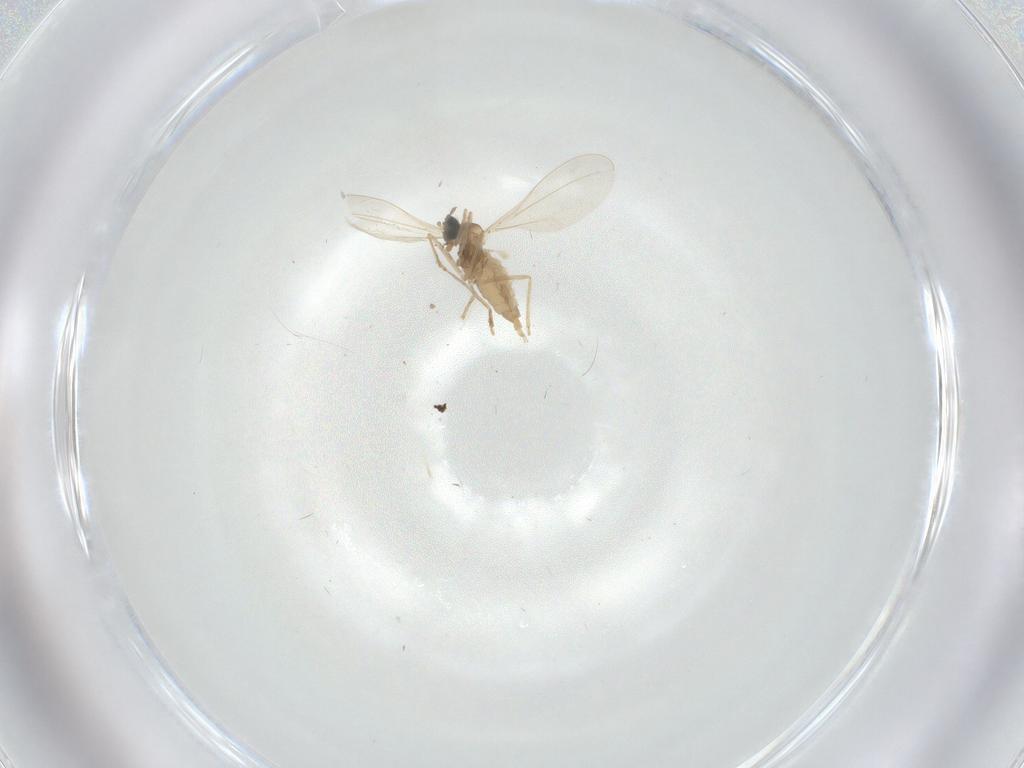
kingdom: Animalia
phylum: Arthropoda
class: Insecta
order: Diptera
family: Cecidomyiidae
